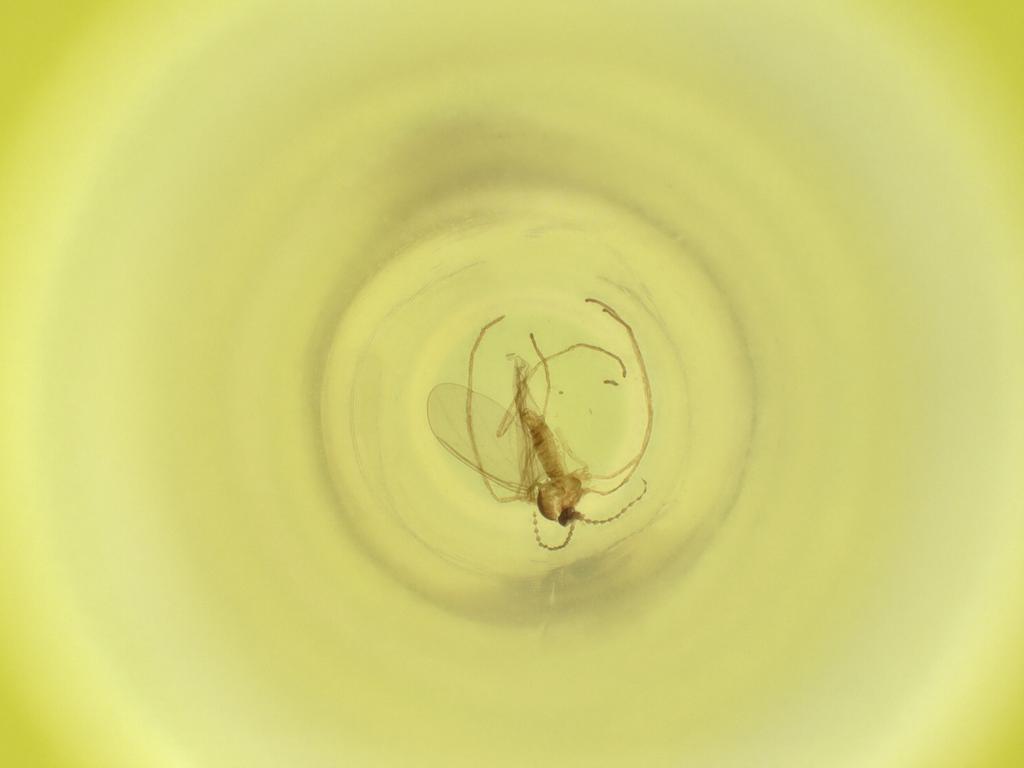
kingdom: Animalia
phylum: Arthropoda
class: Insecta
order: Diptera
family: Cecidomyiidae
